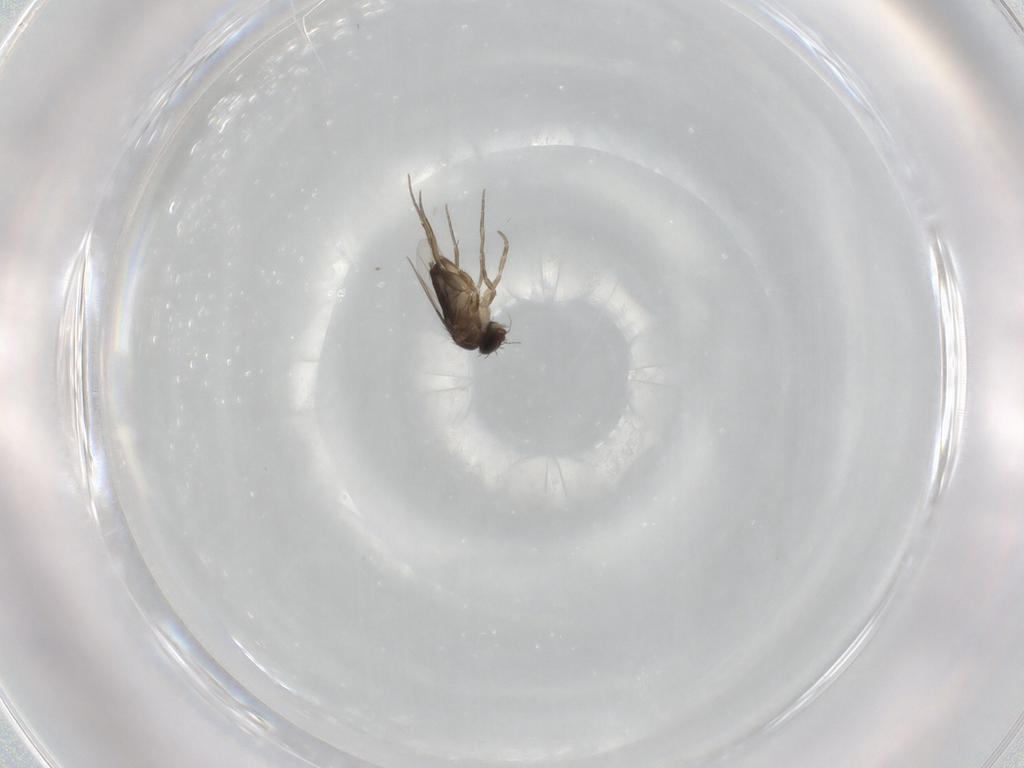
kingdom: Animalia
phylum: Arthropoda
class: Insecta
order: Diptera
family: Phoridae
